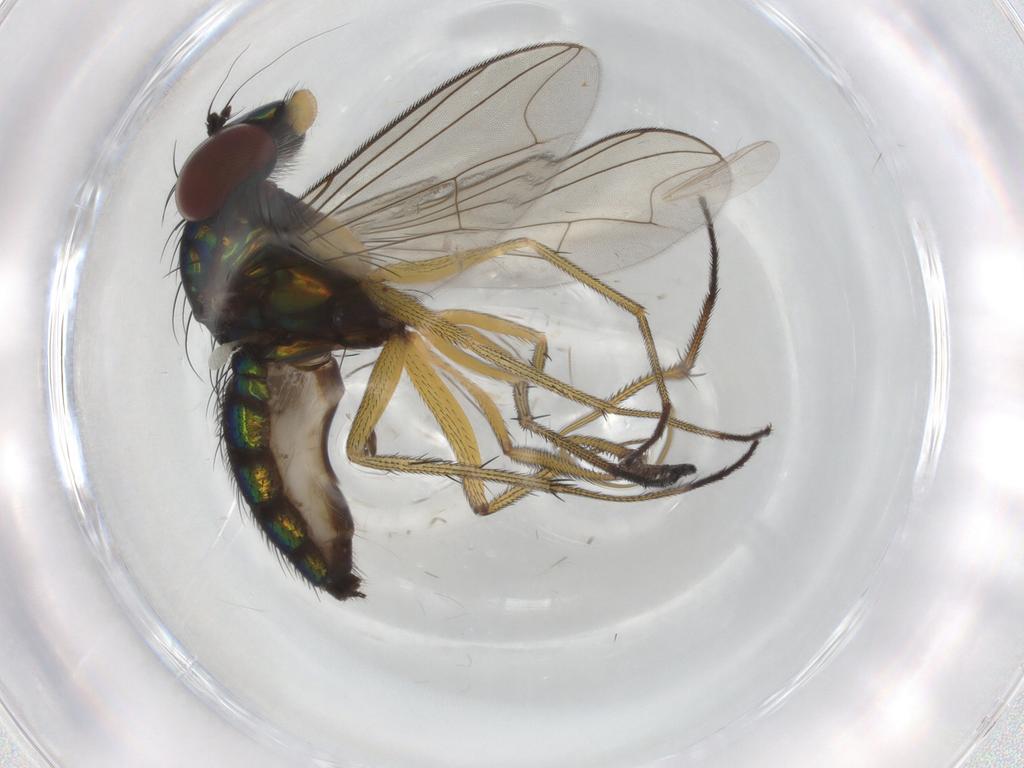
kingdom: Animalia
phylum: Arthropoda
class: Insecta
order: Diptera
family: Dolichopodidae
